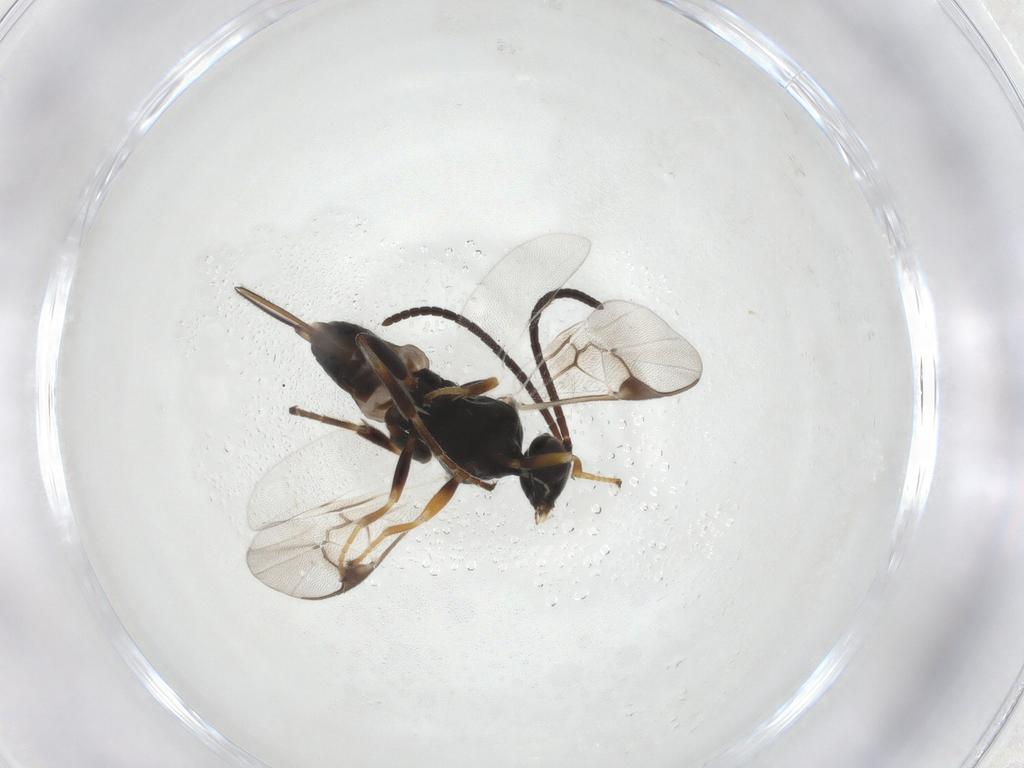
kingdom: Animalia
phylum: Arthropoda
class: Insecta
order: Hymenoptera
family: Braconidae
